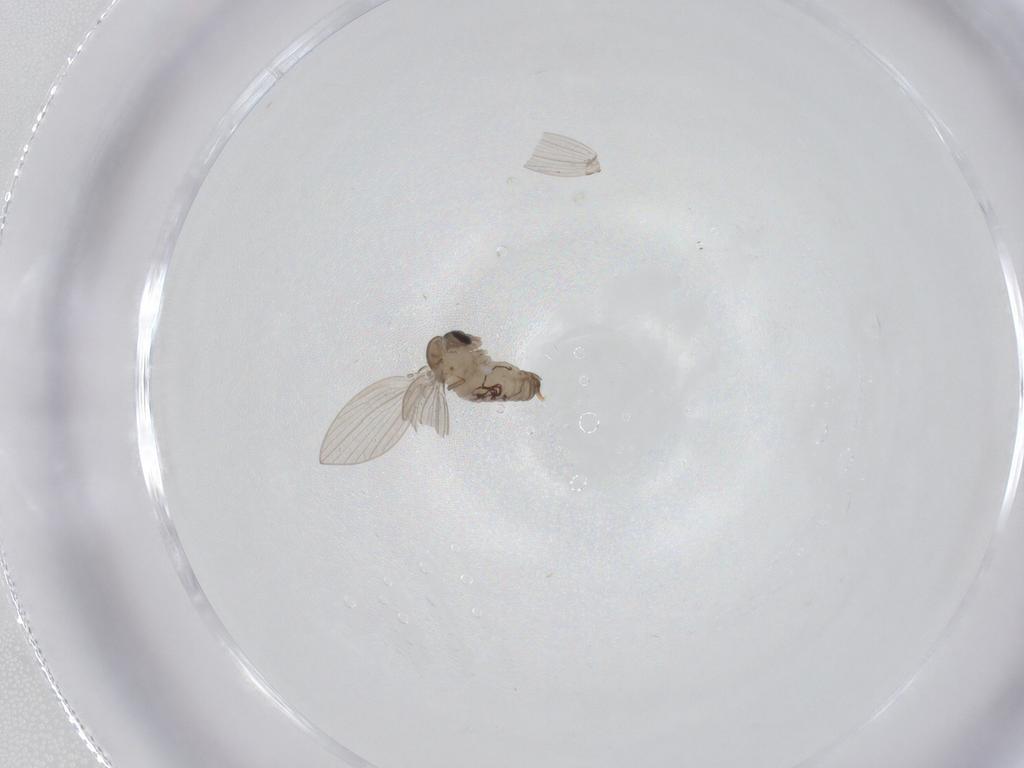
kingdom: Animalia
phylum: Arthropoda
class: Insecta
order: Diptera
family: Psychodidae
